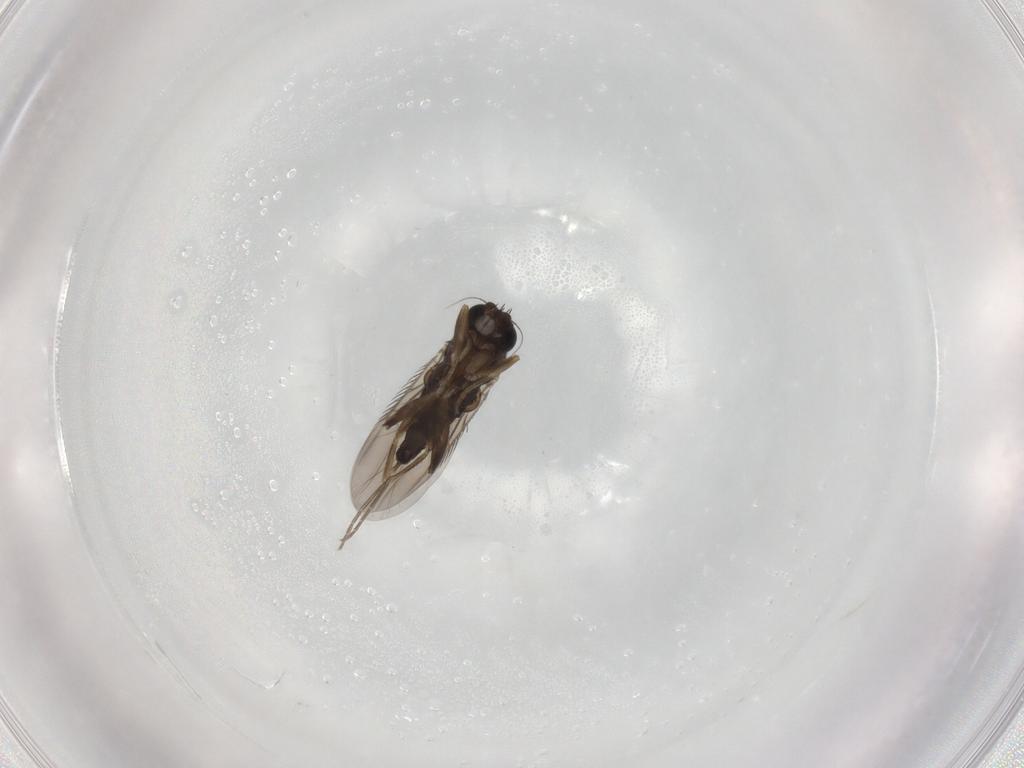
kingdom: Animalia
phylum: Arthropoda
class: Insecta
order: Diptera
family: Phoridae
